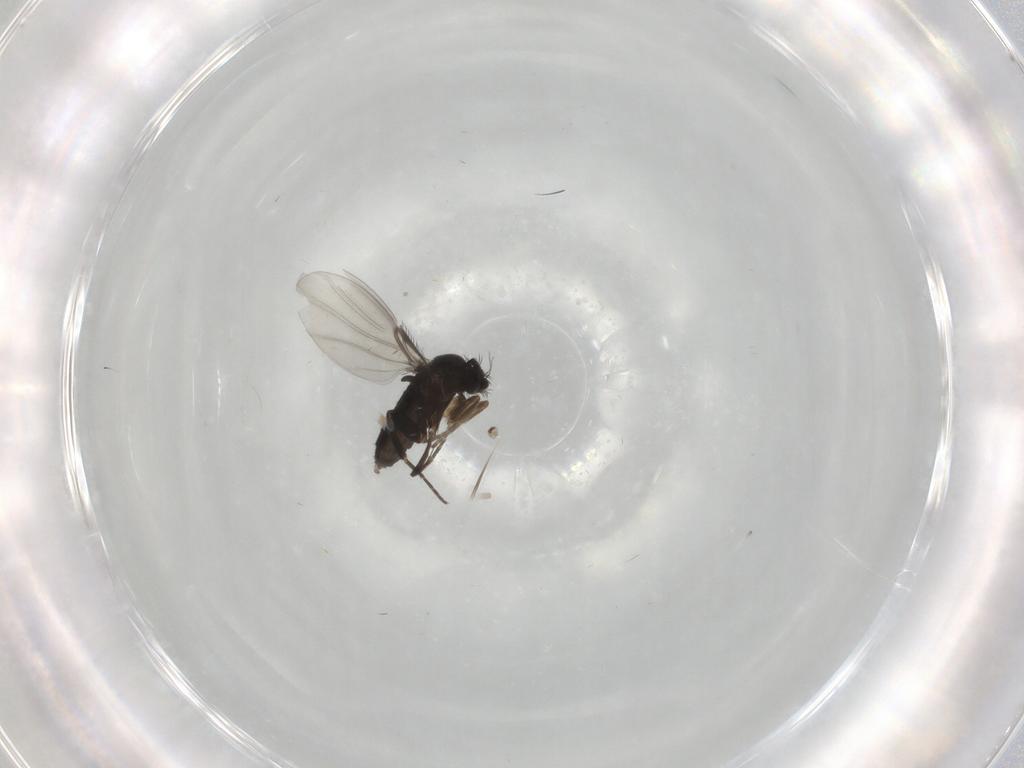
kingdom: Animalia
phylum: Arthropoda
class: Insecta
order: Diptera
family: Phoridae
